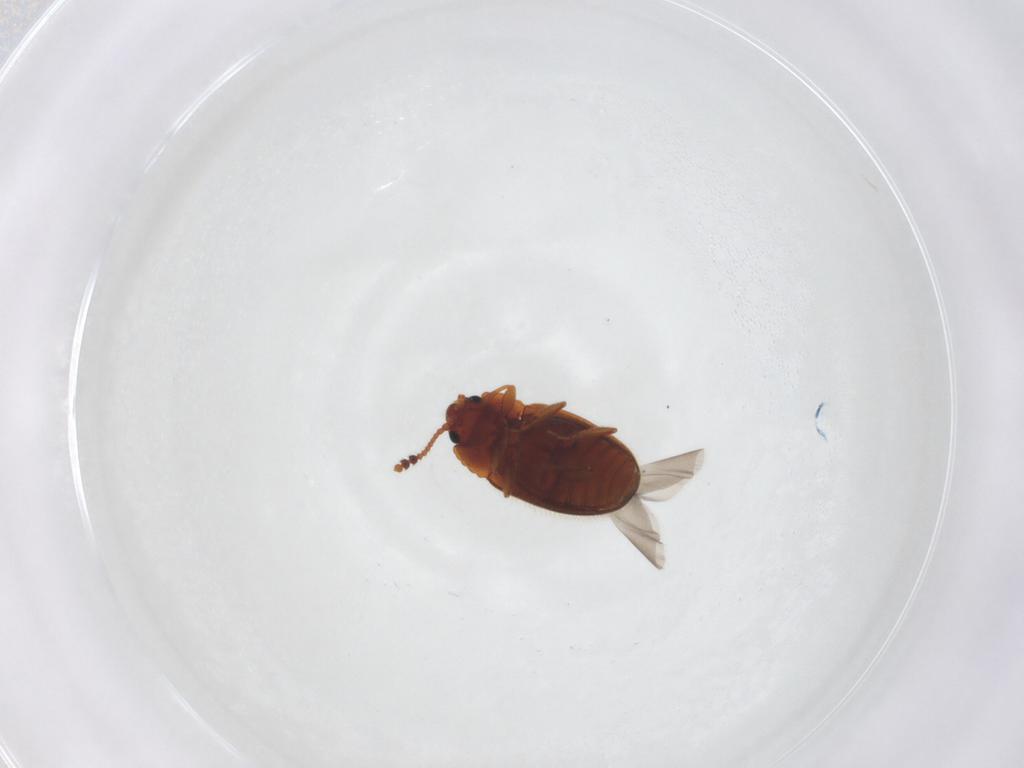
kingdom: Animalia
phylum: Arthropoda
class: Insecta
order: Coleoptera
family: Erotylidae
